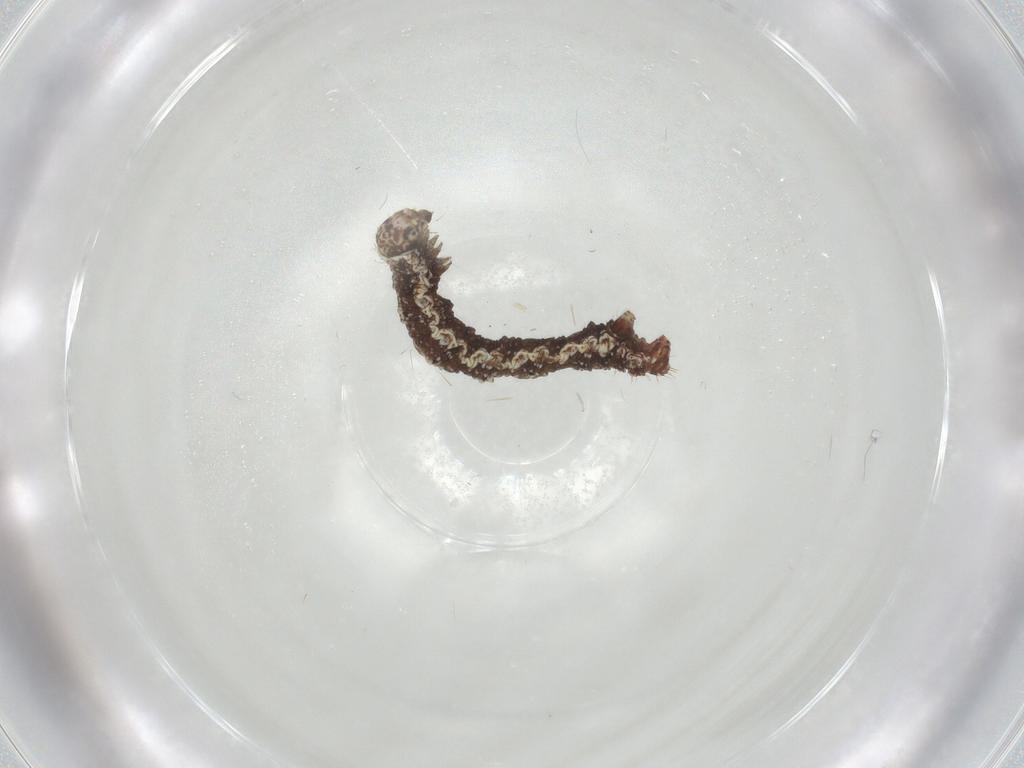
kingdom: Animalia
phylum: Arthropoda
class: Insecta
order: Lepidoptera
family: Geometridae
